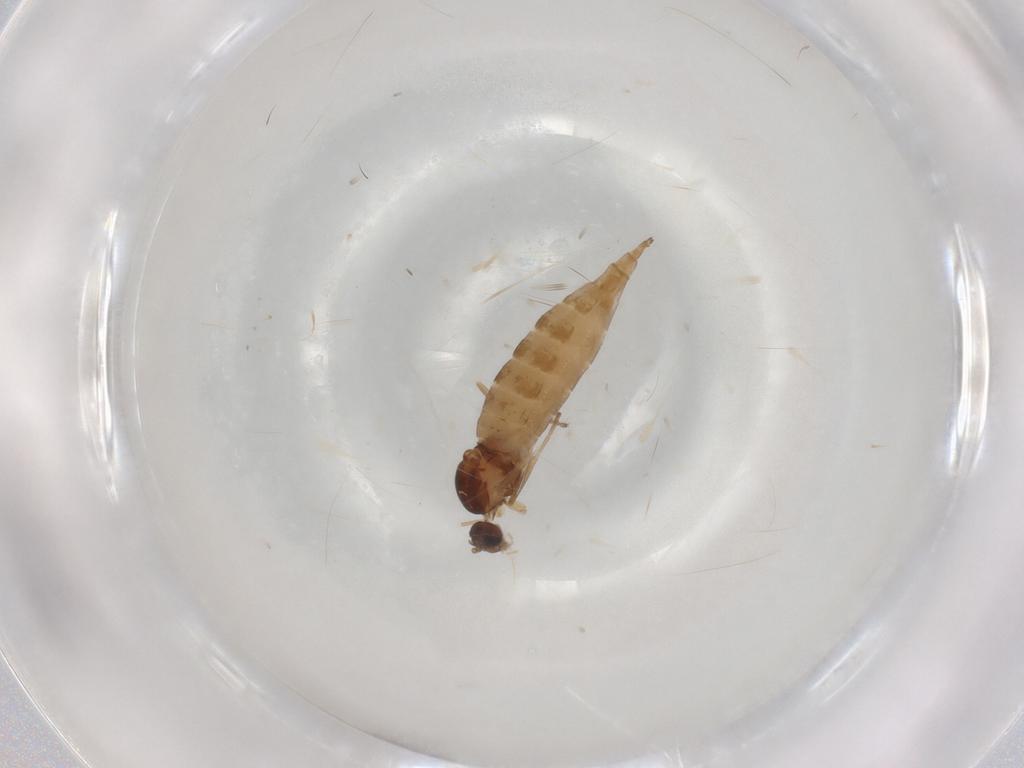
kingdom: Animalia
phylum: Arthropoda
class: Insecta
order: Diptera
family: Cecidomyiidae
